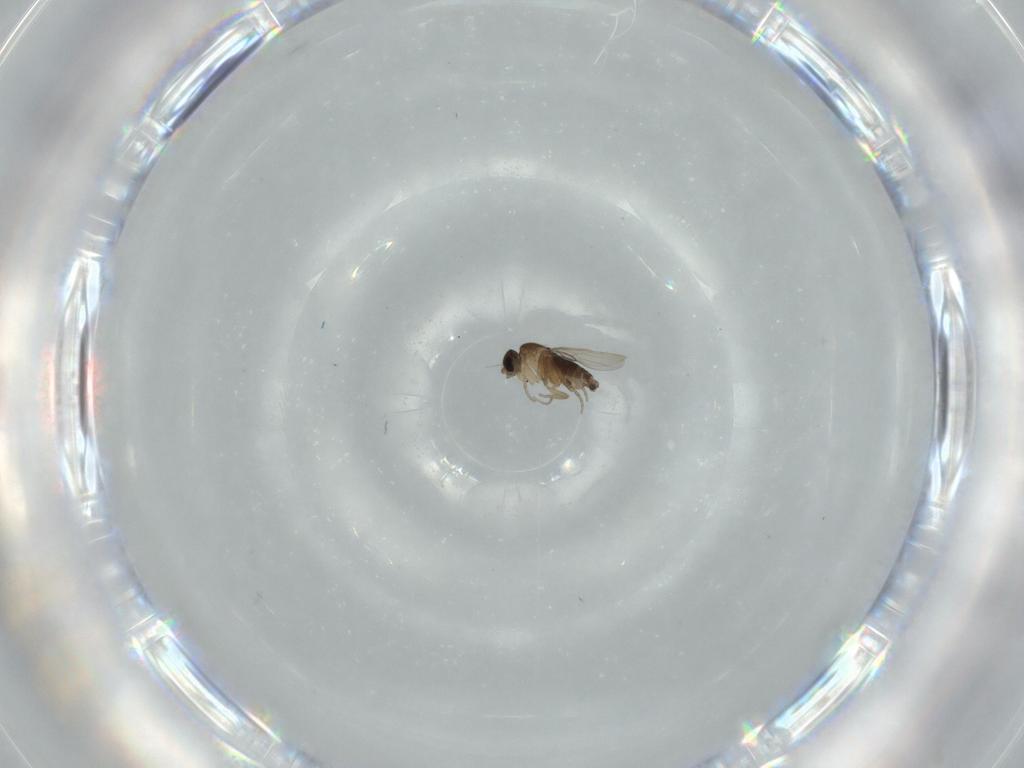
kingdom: Animalia
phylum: Arthropoda
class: Insecta
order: Diptera
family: Phoridae
